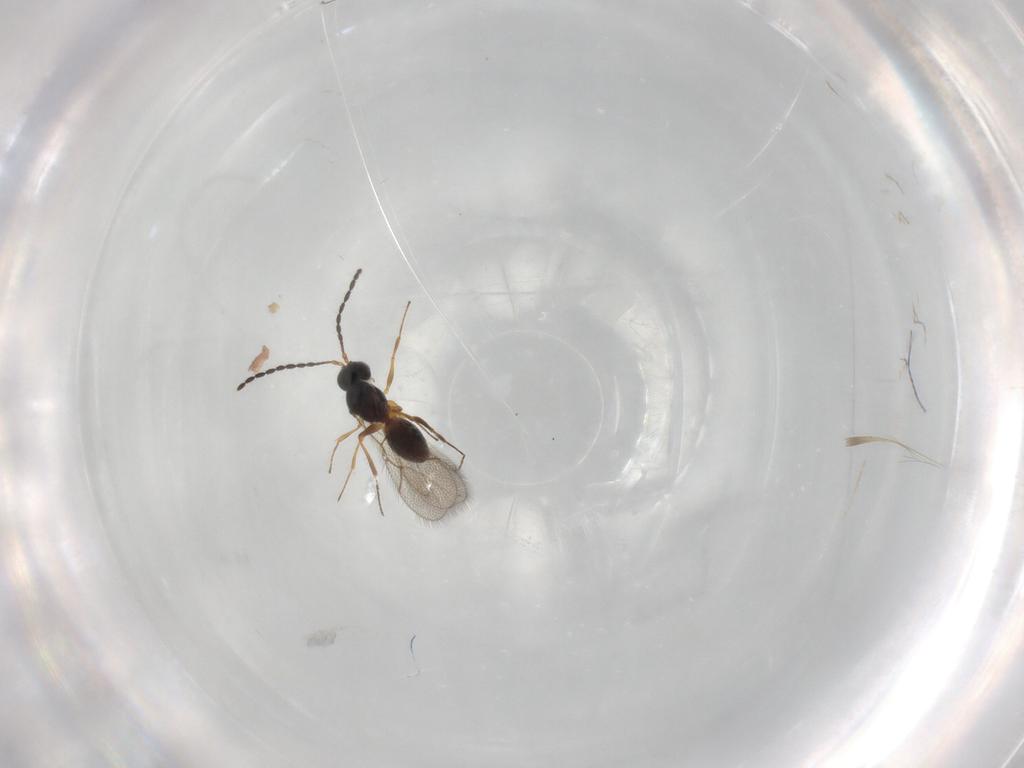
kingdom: Animalia
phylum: Arthropoda
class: Insecta
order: Hymenoptera
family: Figitidae
